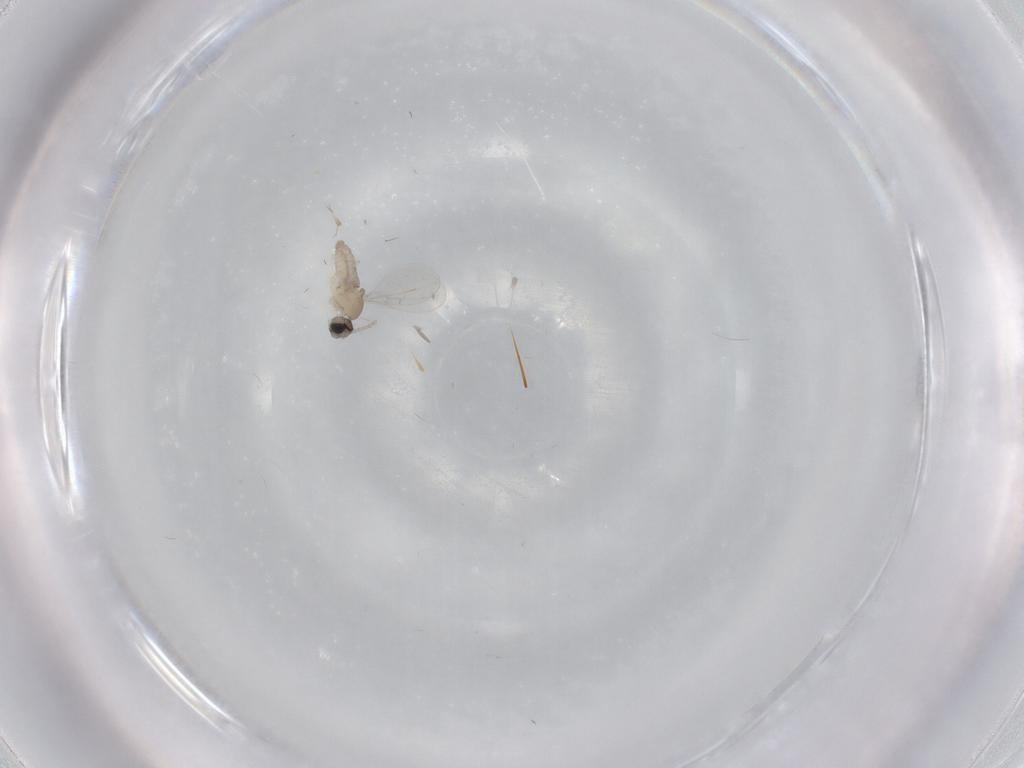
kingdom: Animalia
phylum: Arthropoda
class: Insecta
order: Diptera
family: Cecidomyiidae
